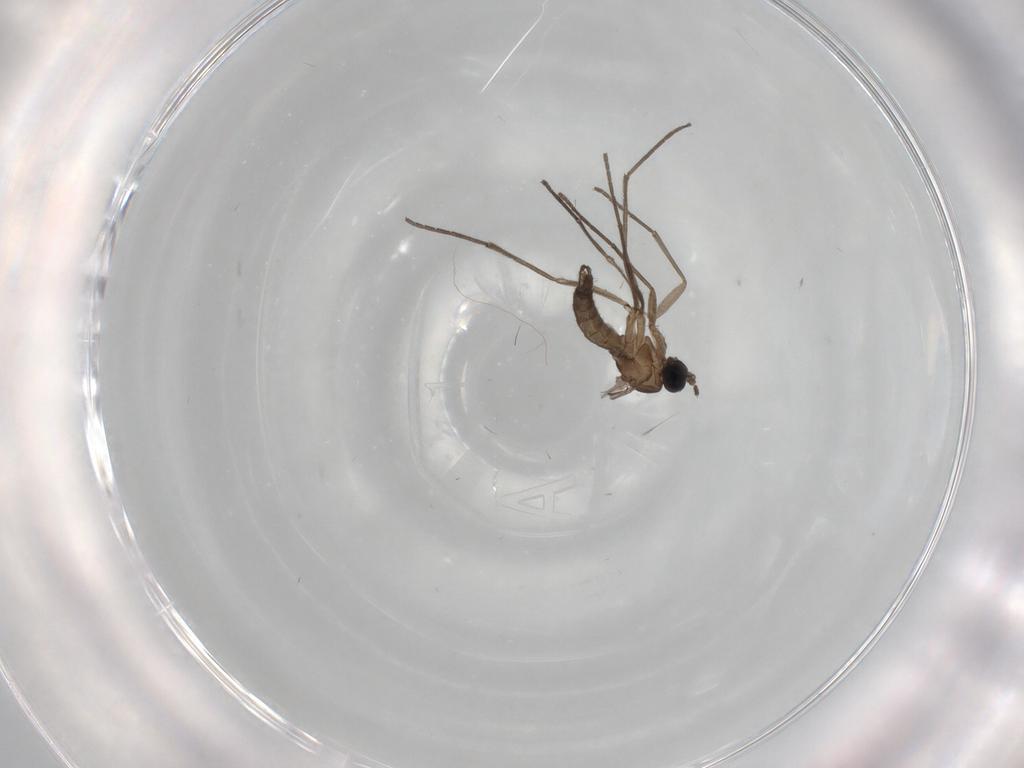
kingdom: Animalia
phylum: Arthropoda
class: Insecta
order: Diptera
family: Sciaridae
